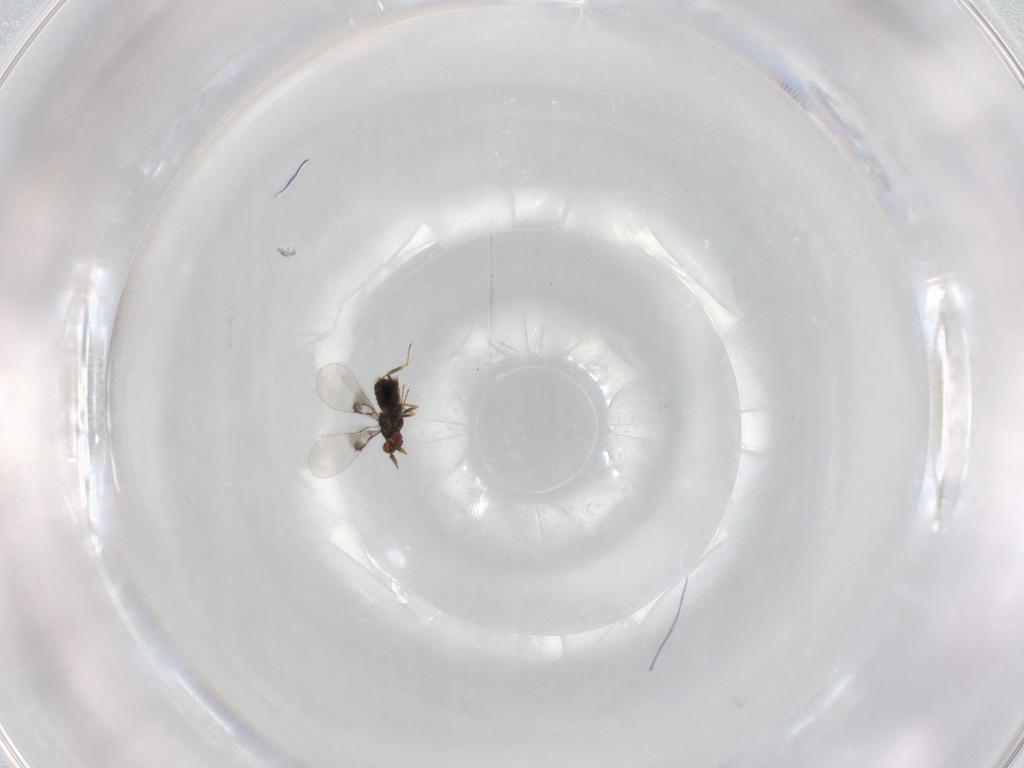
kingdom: Animalia
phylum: Arthropoda
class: Insecta
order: Hymenoptera
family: Trichogrammatidae
